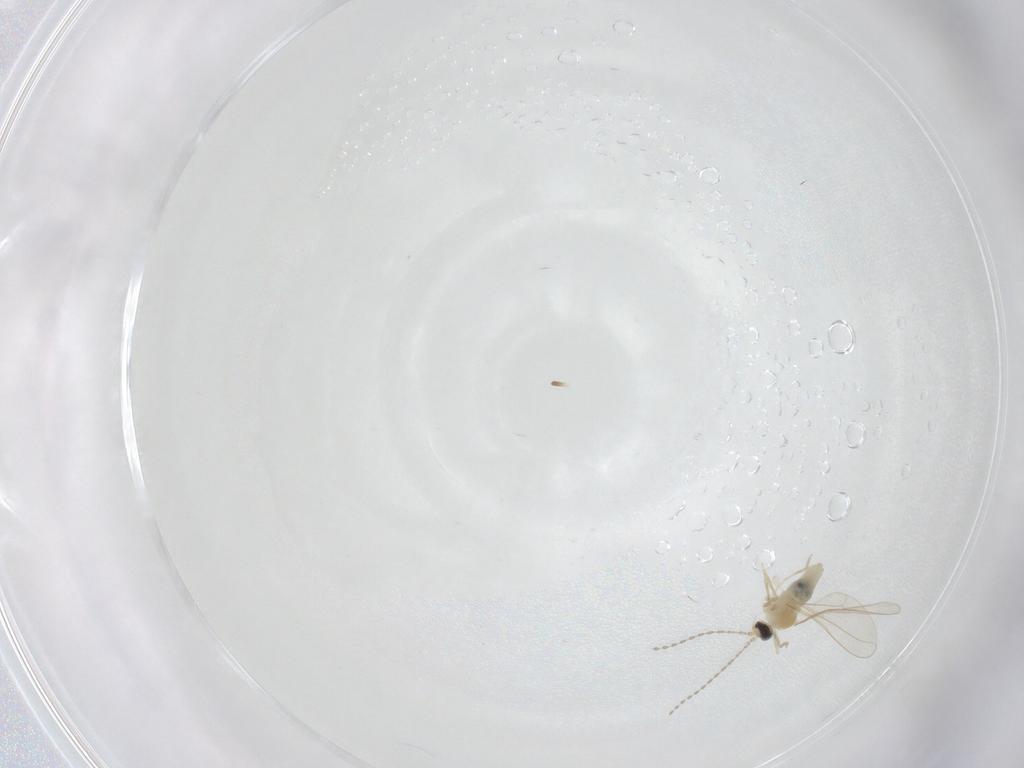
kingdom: Animalia
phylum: Arthropoda
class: Insecta
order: Diptera
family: Cecidomyiidae
